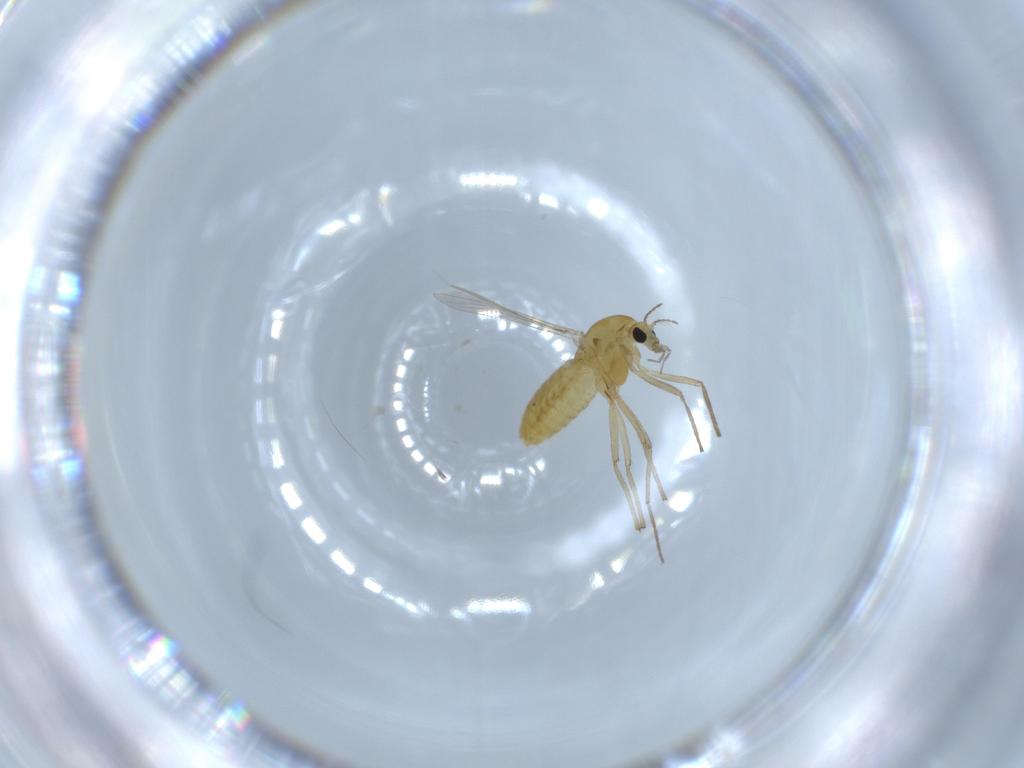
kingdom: Animalia
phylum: Arthropoda
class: Insecta
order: Diptera
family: Chironomidae
